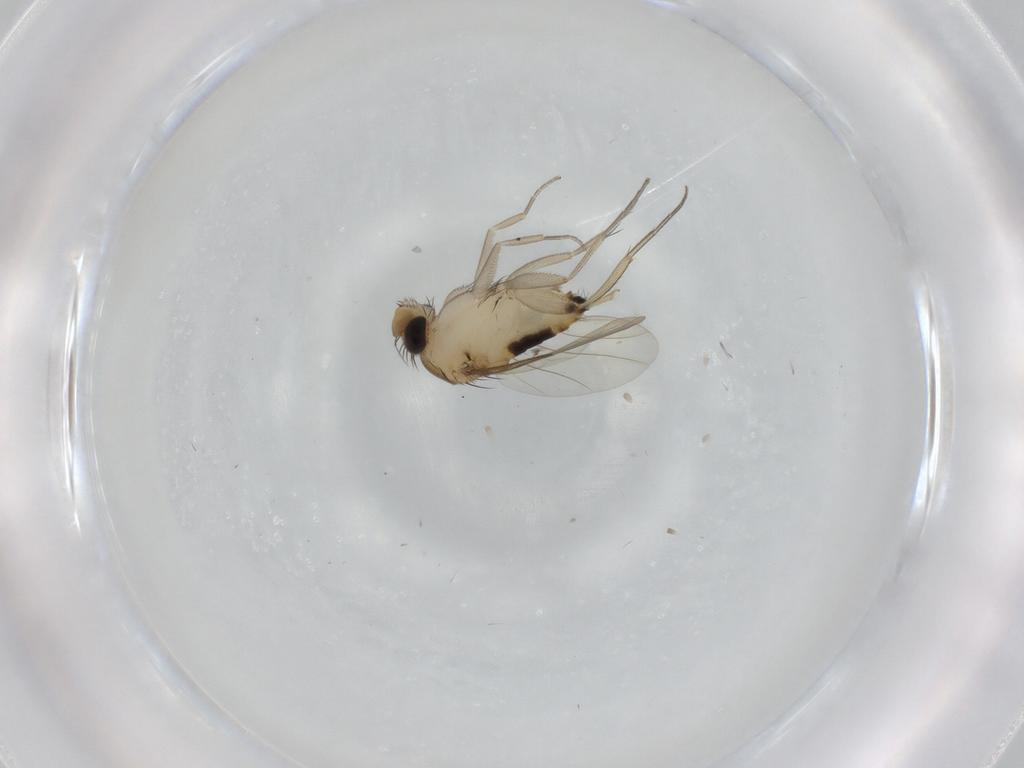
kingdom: Animalia
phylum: Arthropoda
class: Insecta
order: Diptera
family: Phoridae
